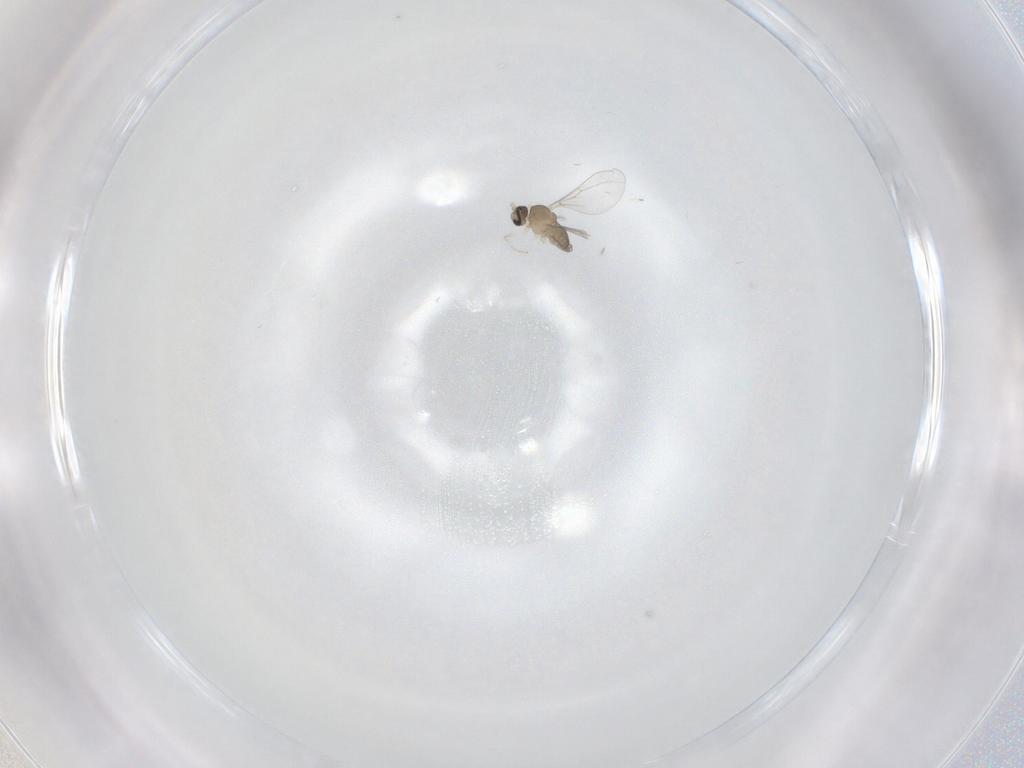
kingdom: Animalia
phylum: Arthropoda
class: Insecta
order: Diptera
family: Cecidomyiidae
